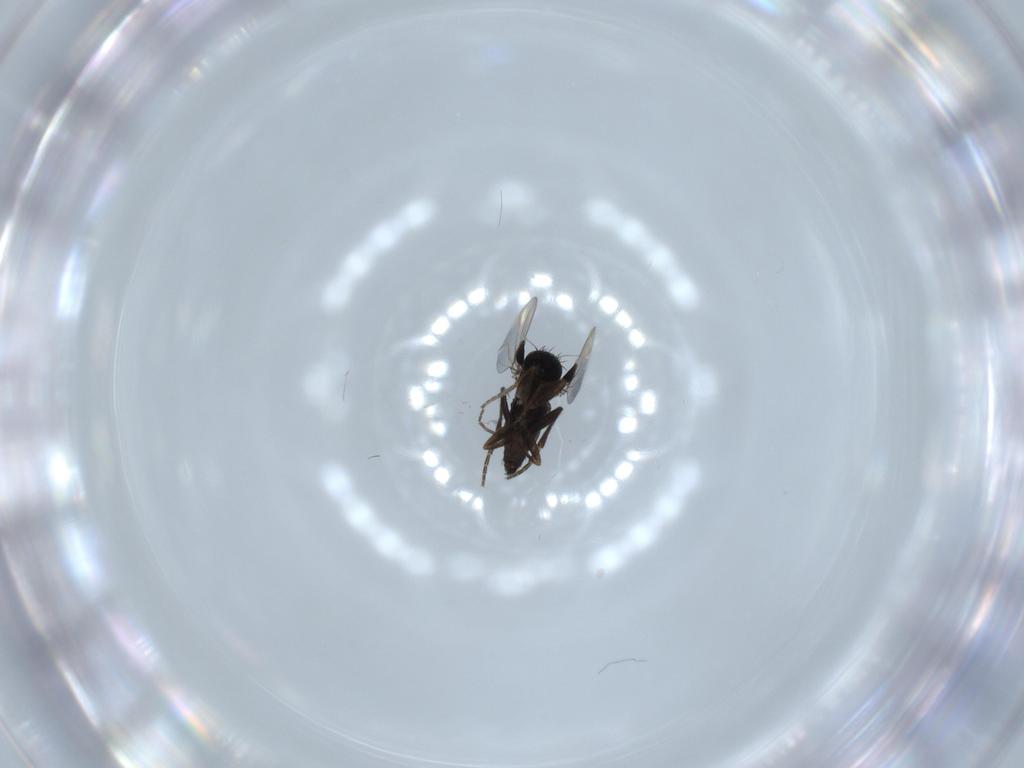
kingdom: Animalia
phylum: Arthropoda
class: Insecta
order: Diptera
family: Phoridae
